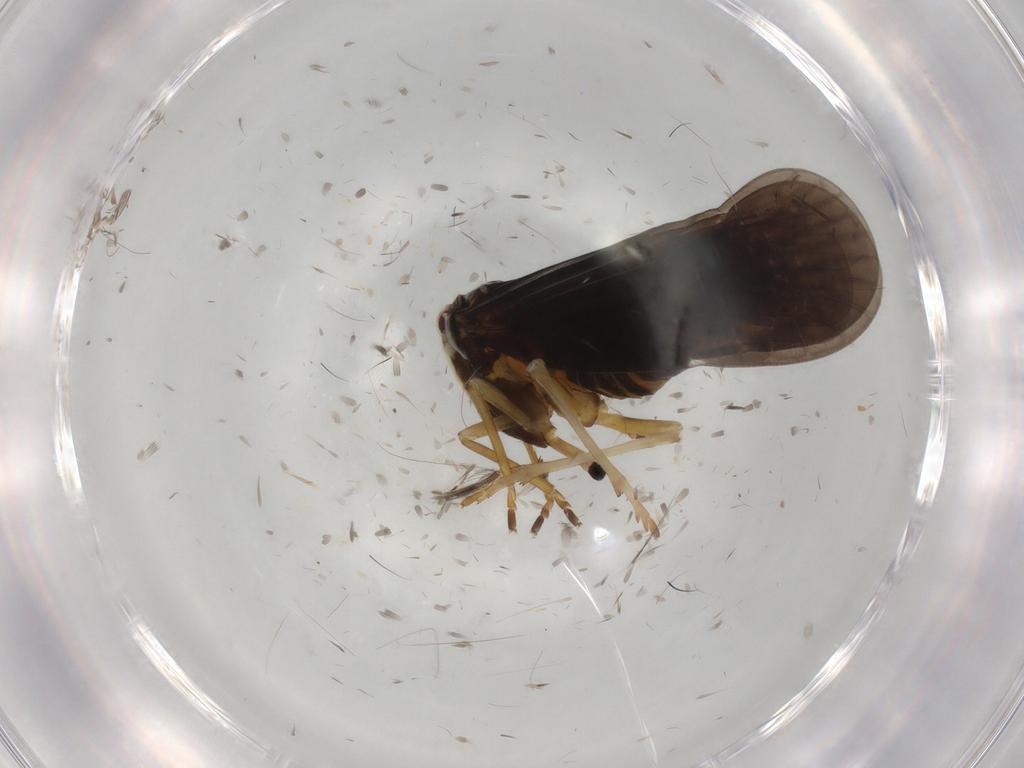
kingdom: Animalia
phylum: Arthropoda
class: Insecta
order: Hemiptera
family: Derbidae
